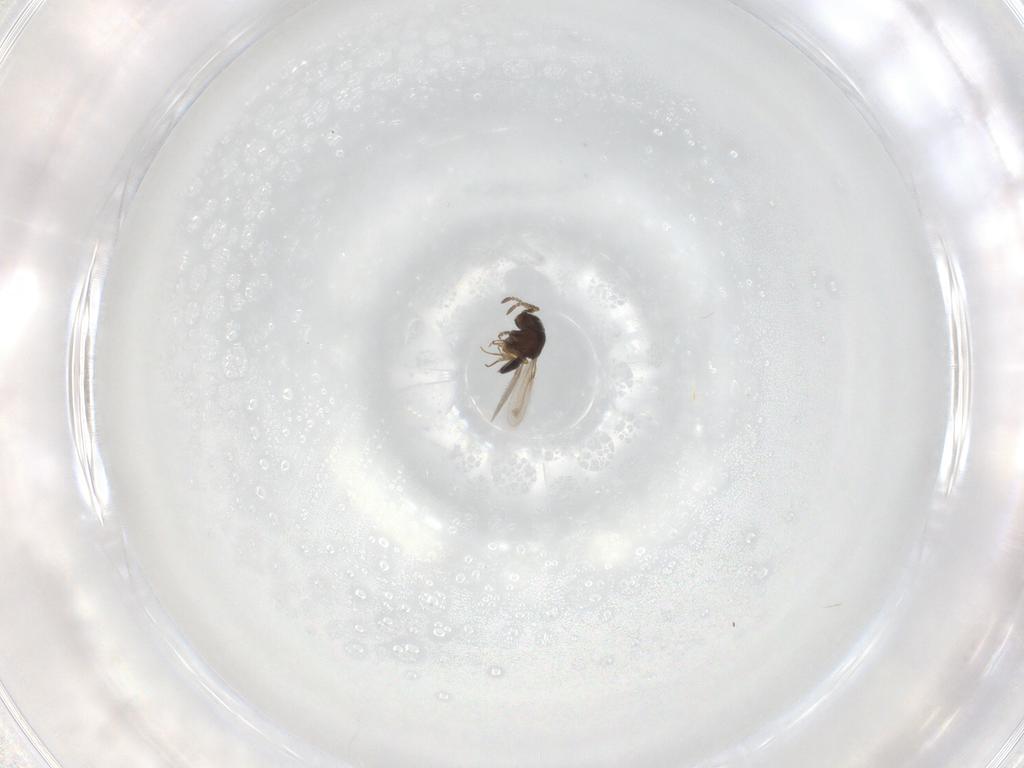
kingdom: Animalia
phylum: Arthropoda
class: Insecta
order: Hymenoptera
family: Scelionidae
